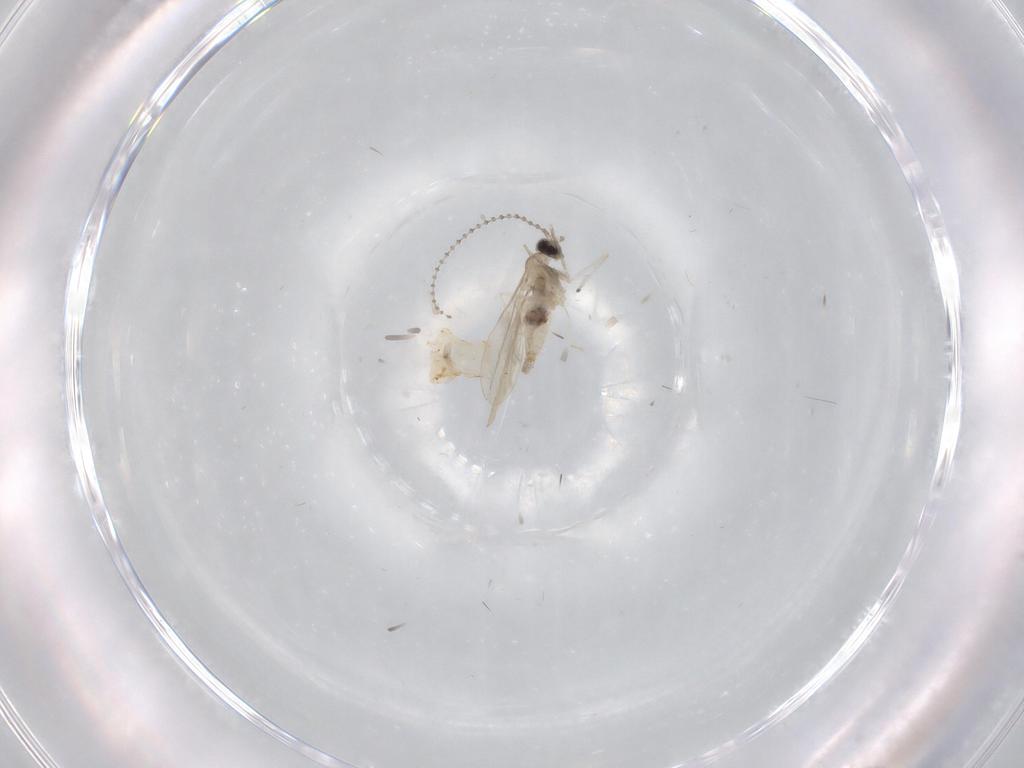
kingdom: Animalia
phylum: Arthropoda
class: Insecta
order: Diptera
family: Cecidomyiidae
